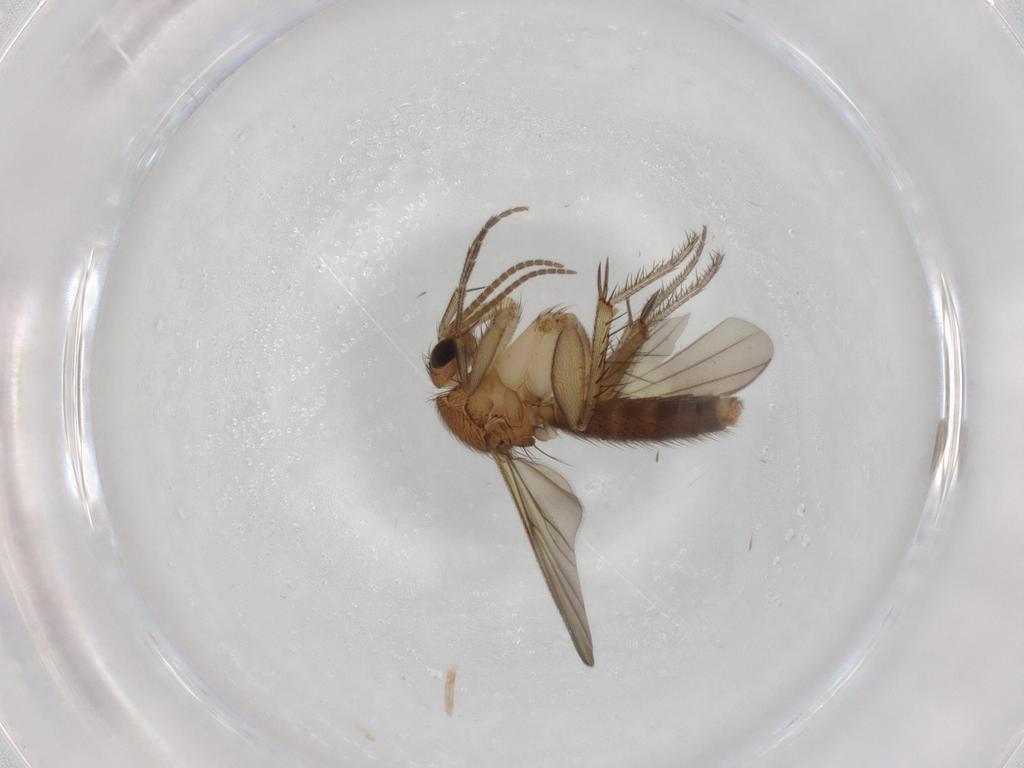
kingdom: Animalia
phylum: Arthropoda
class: Insecta
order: Diptera
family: Mycetophilidae
